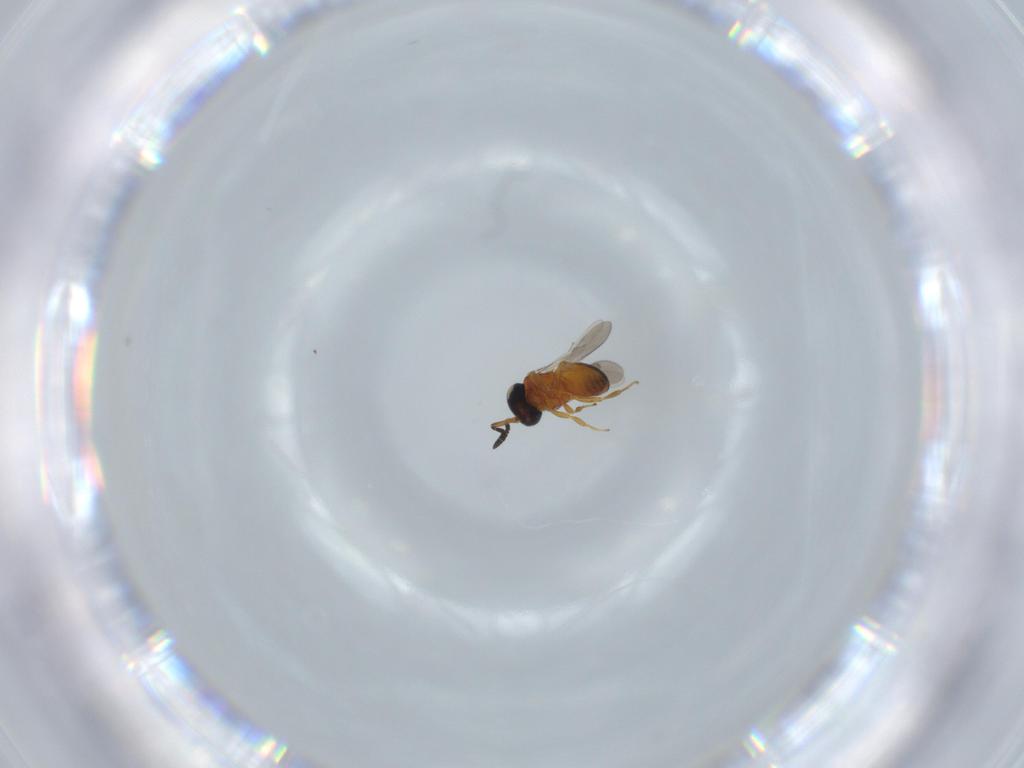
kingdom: Animalia
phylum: Arthropoda
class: Insecta
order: Hymenoptera
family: Scelionidae
